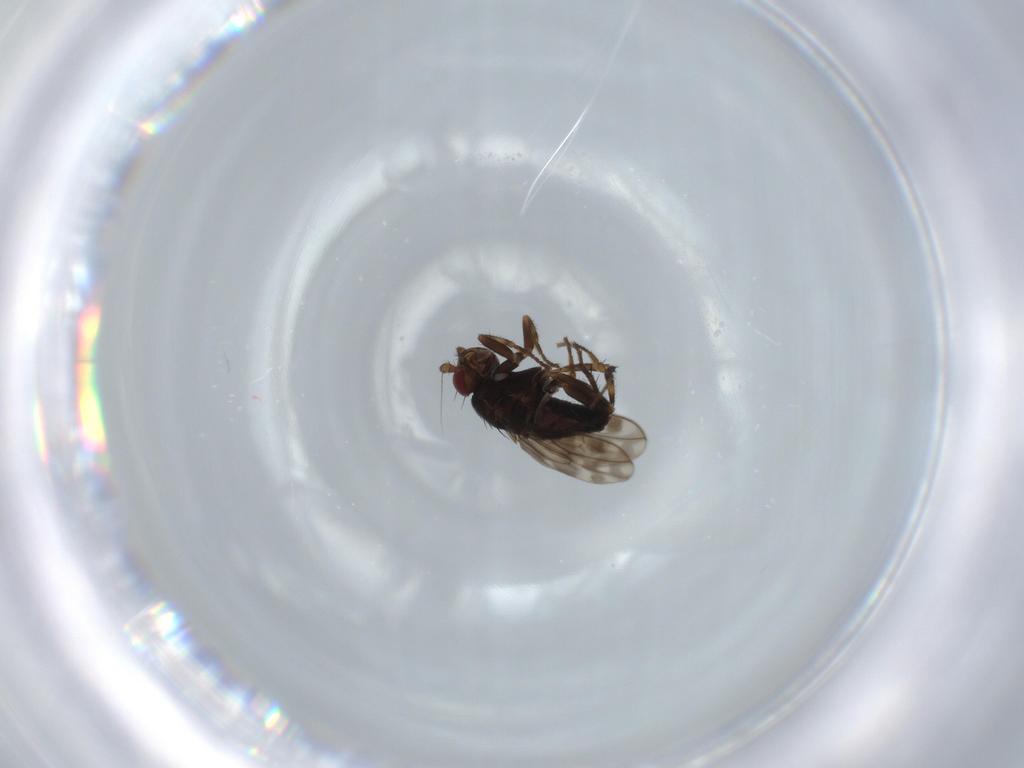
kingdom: Animalia
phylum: Arthropoda
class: Insecta
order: Diptera
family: Sphaeroceridae
